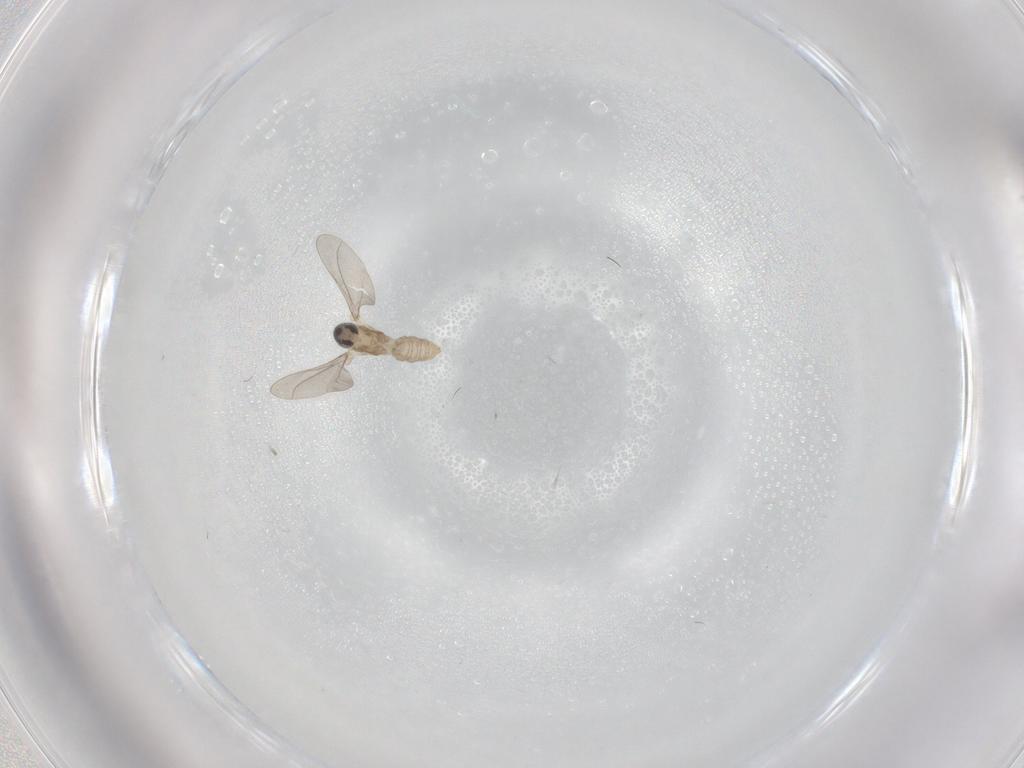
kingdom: Animalia
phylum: Arthropoda
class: Insecta
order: Diptera
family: Mycetophilidae
